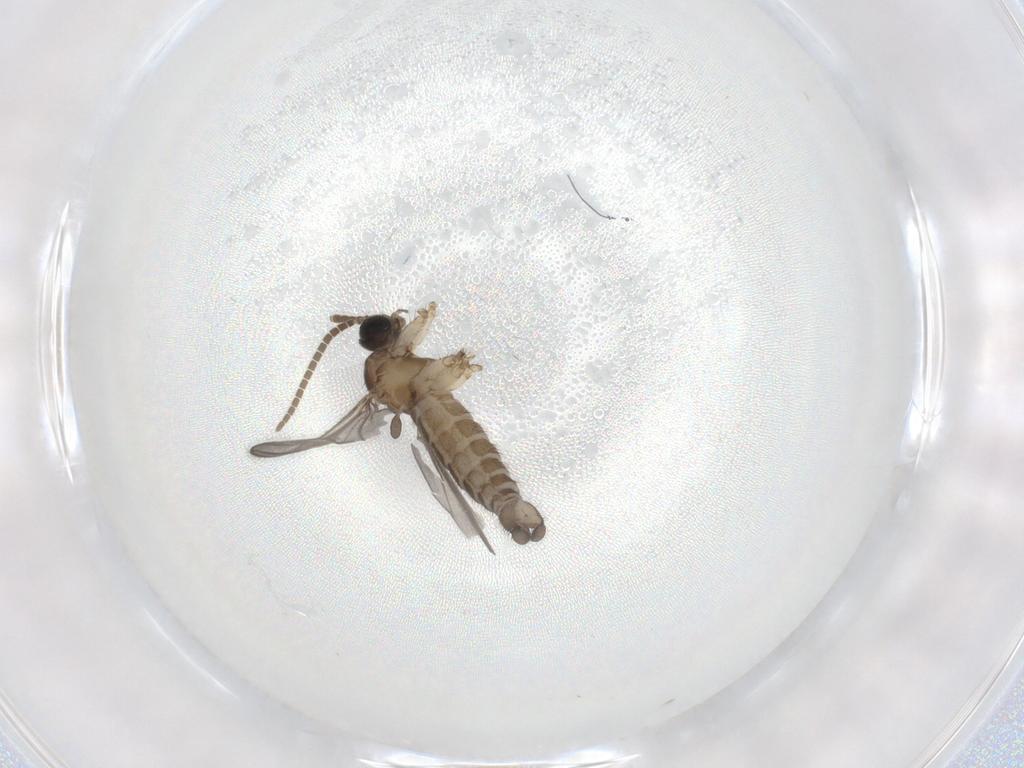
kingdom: Animalia
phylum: Arthropoda
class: Insecta
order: Diptera
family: Cecidomyiidae
